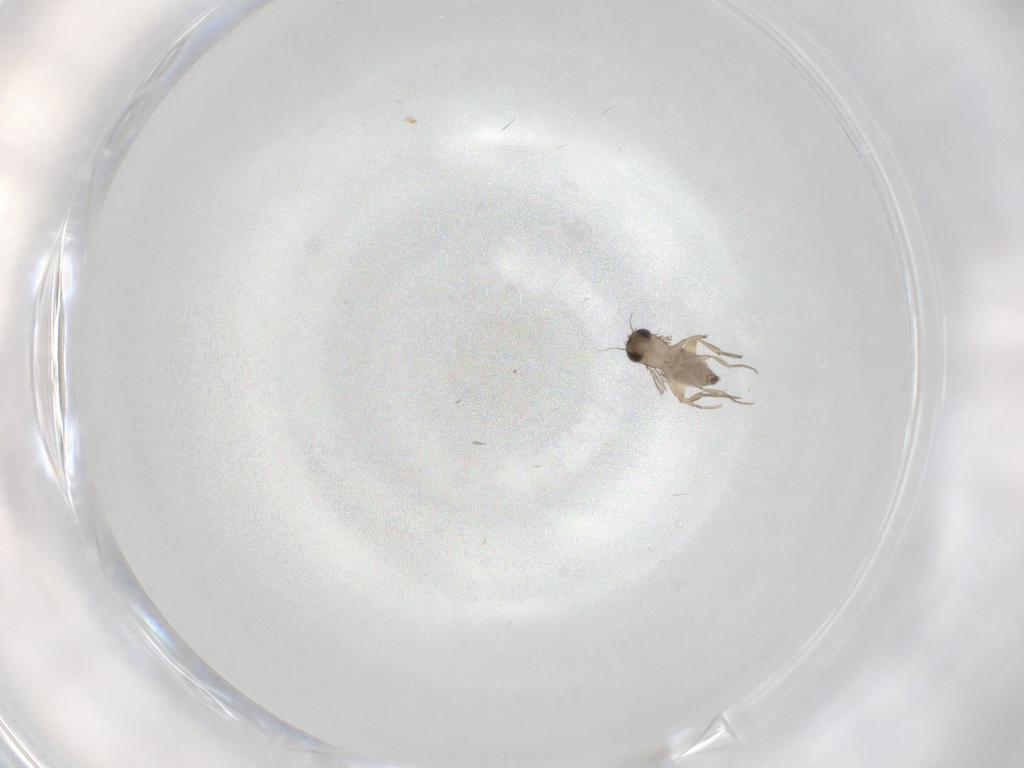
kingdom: Animalia
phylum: Arthropoda
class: Insecta
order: Diptera
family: Phoridae
